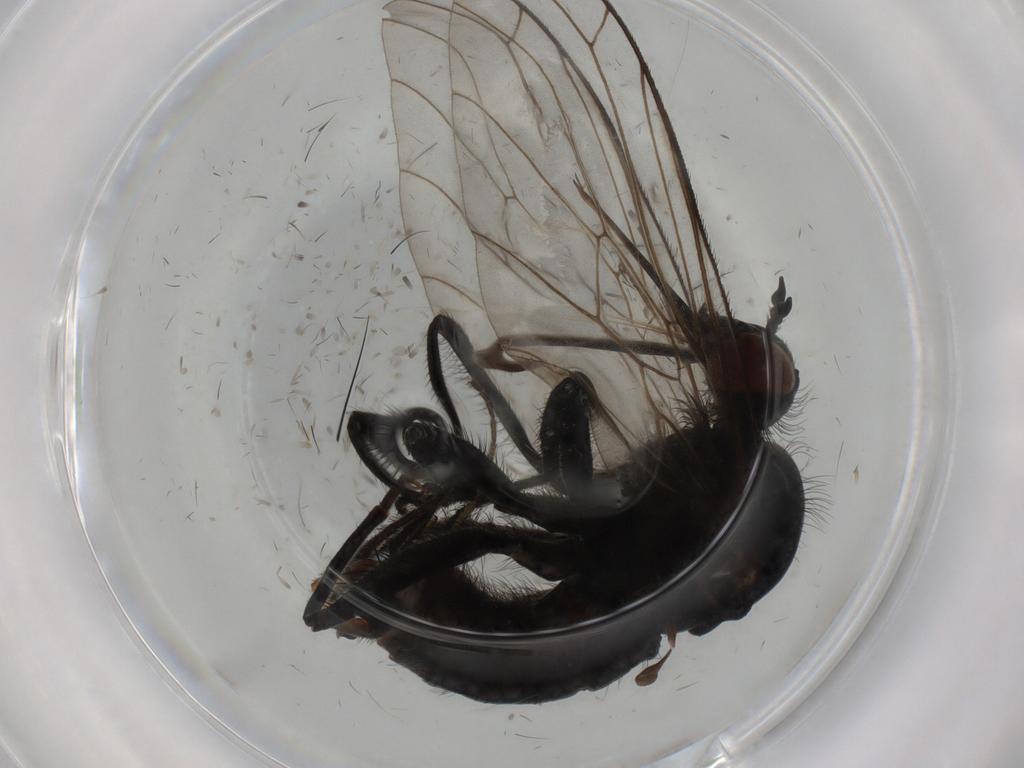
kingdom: Animalia
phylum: Arthropoda
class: Insecta
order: Diptera
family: Empididae
